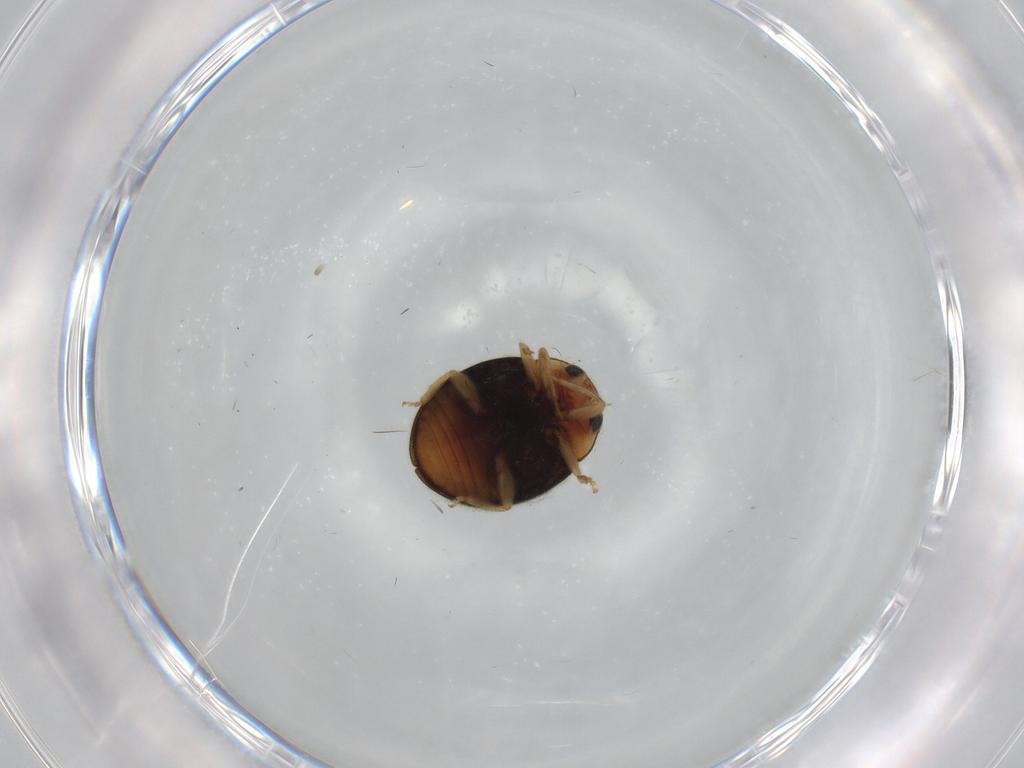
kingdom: Animalia
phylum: Arthropoda
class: Insecta
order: Coleoptera
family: Staphylinidae
